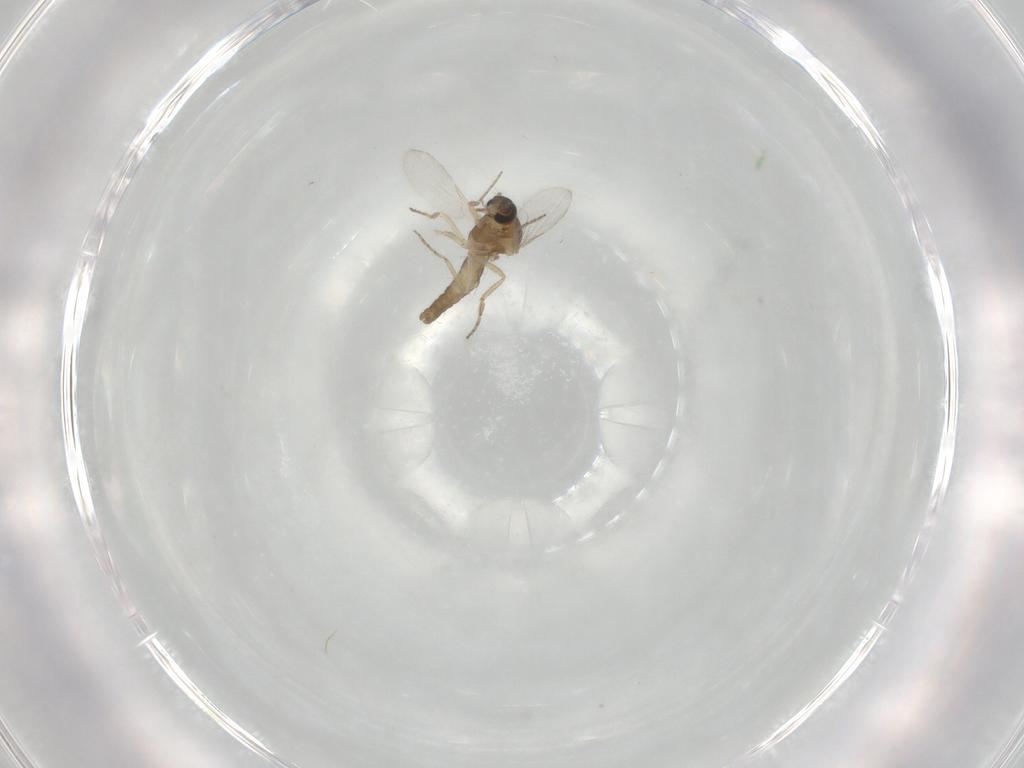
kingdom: Animalia
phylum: Arthropoda
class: Insecta
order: Diptera
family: Ceratopogonidae
